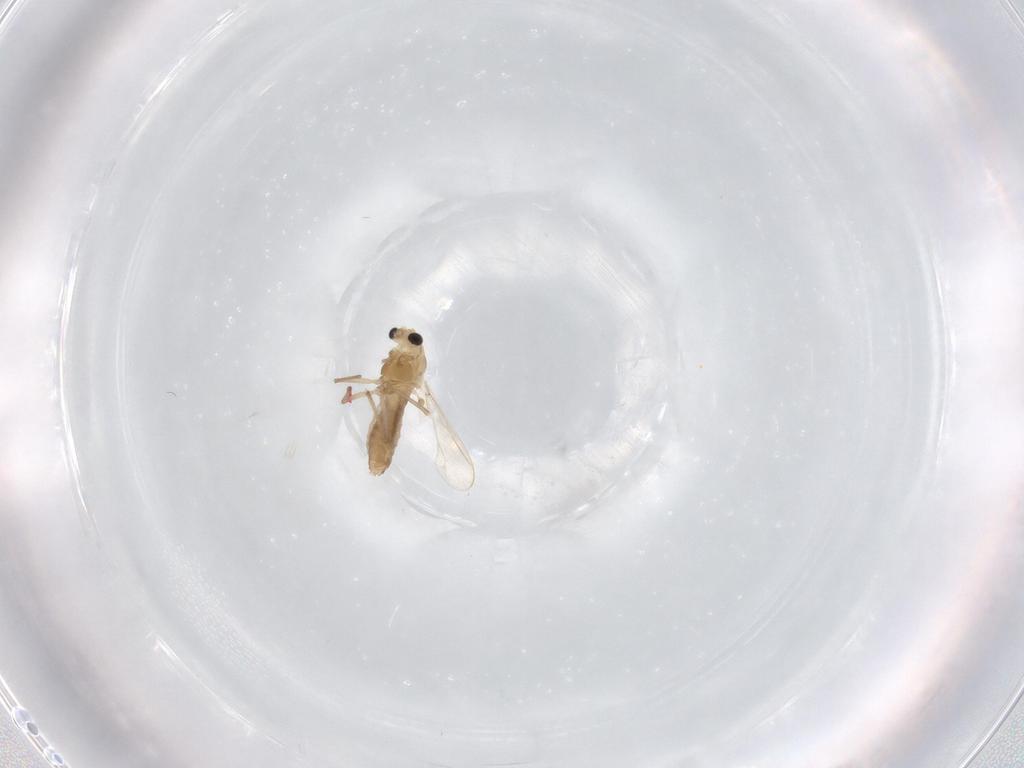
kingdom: Animalia
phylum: Arthropoda
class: Insecta
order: Diptera
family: Chironomidae
